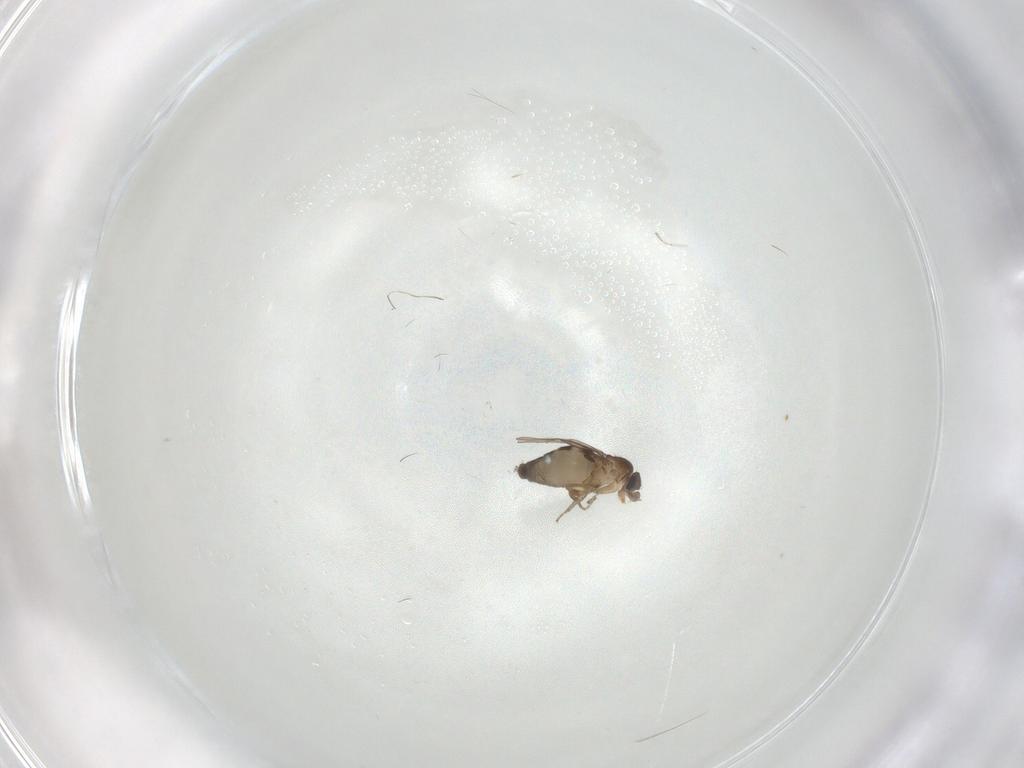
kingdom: Animalia
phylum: Arthropoda
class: Insecta
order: Diptera
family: Phoridae
